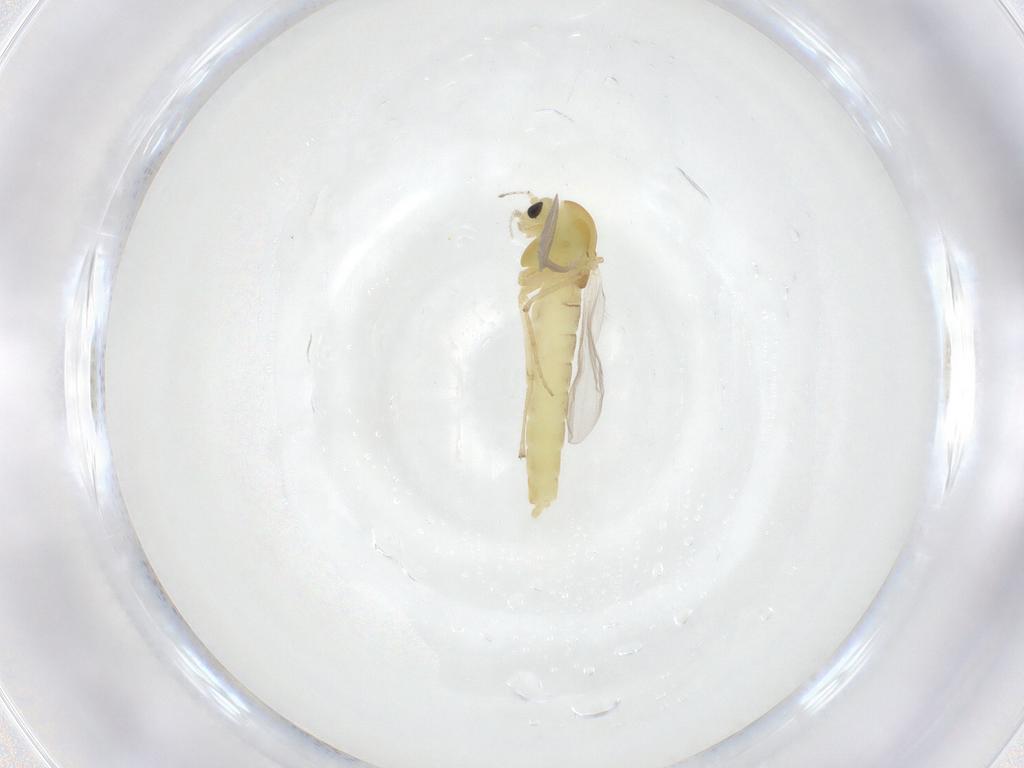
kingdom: Animalia
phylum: Arthropoda
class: Insecta
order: Diptera
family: Chironomidae
